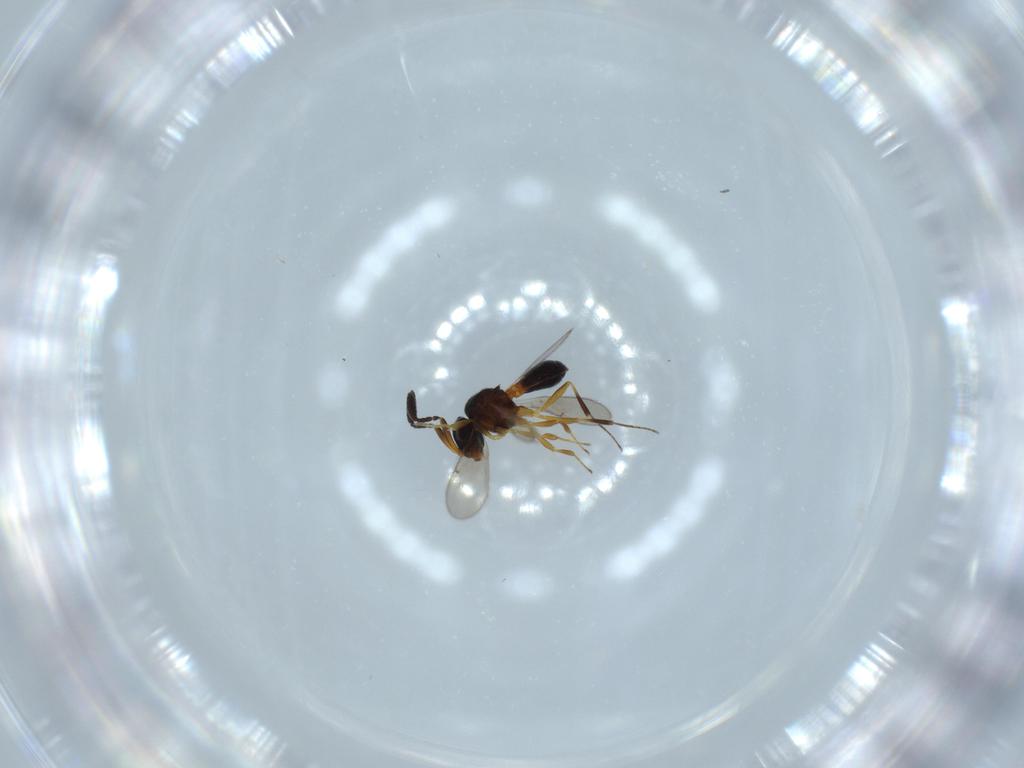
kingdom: Animalia
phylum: Arthropoda
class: Insecta
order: Hymenoptera
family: Scelionidae
